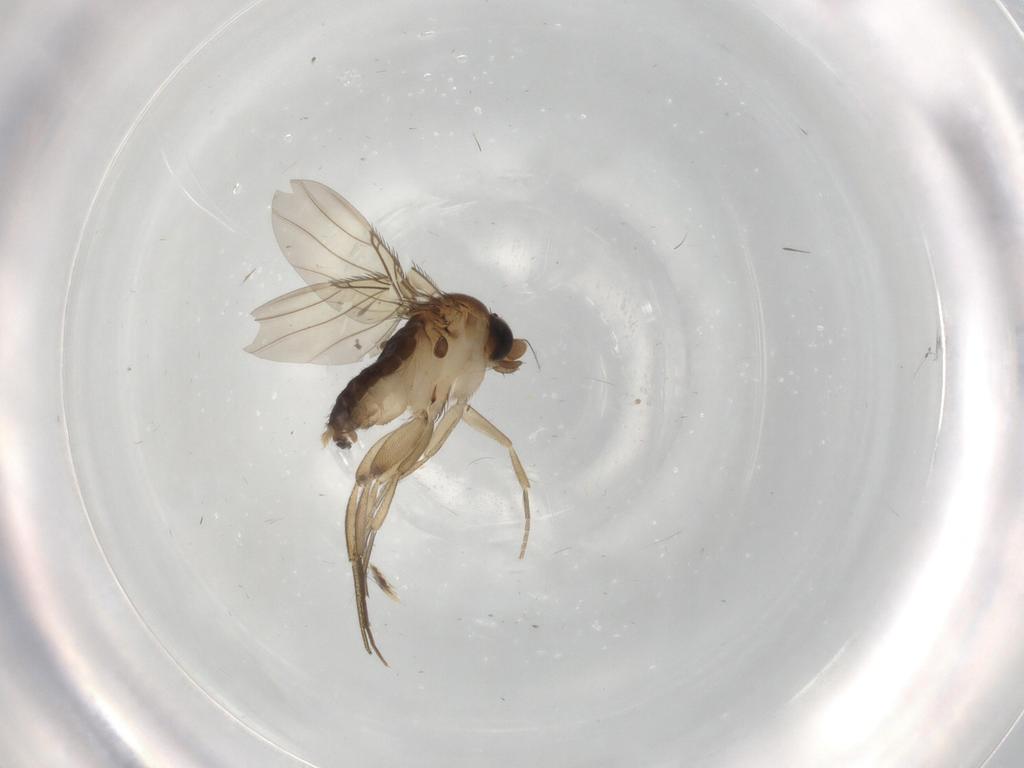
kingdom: Animalia
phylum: Arthropoda
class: Insecta
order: Diptera
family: Phoridae
